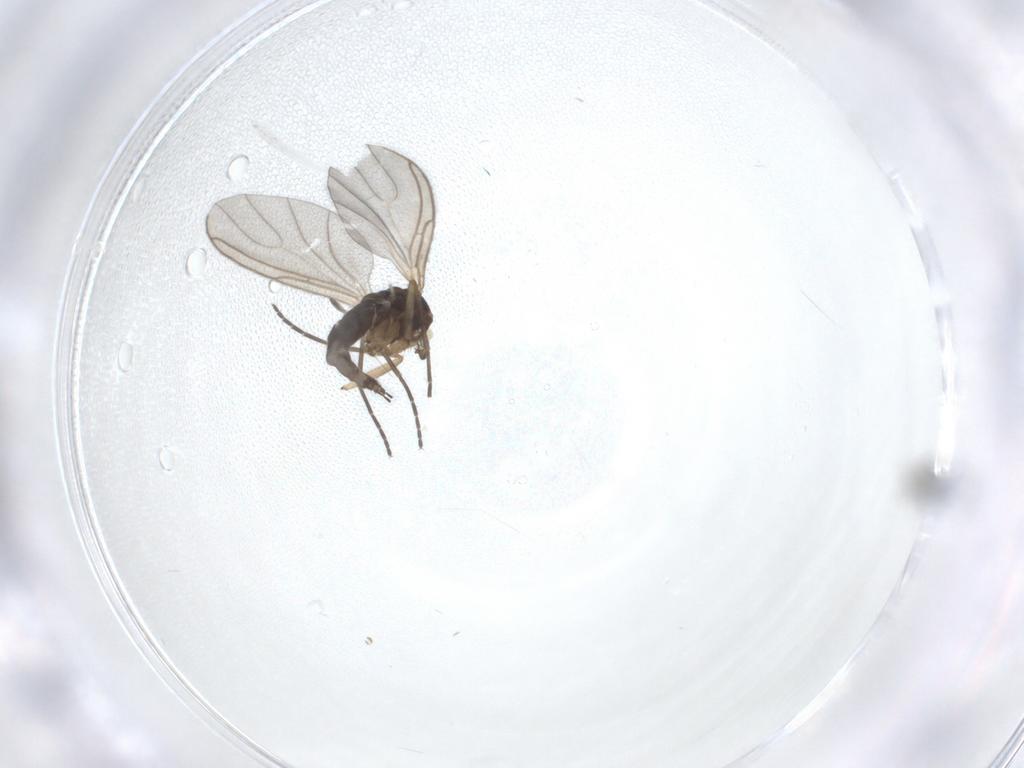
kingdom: Animalia
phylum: Arthropoda
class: Insecta
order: Diptera
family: Sciaridae
